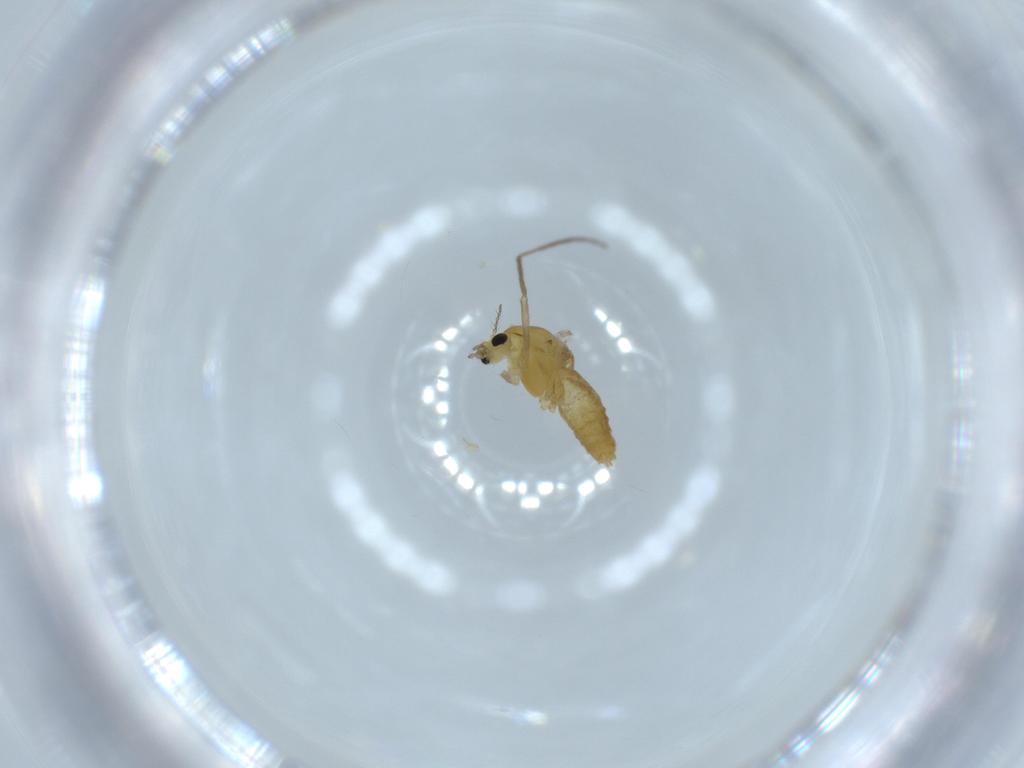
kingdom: Animalia
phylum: Arthropoda
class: Insecta
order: Diptera
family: Chironomidae
